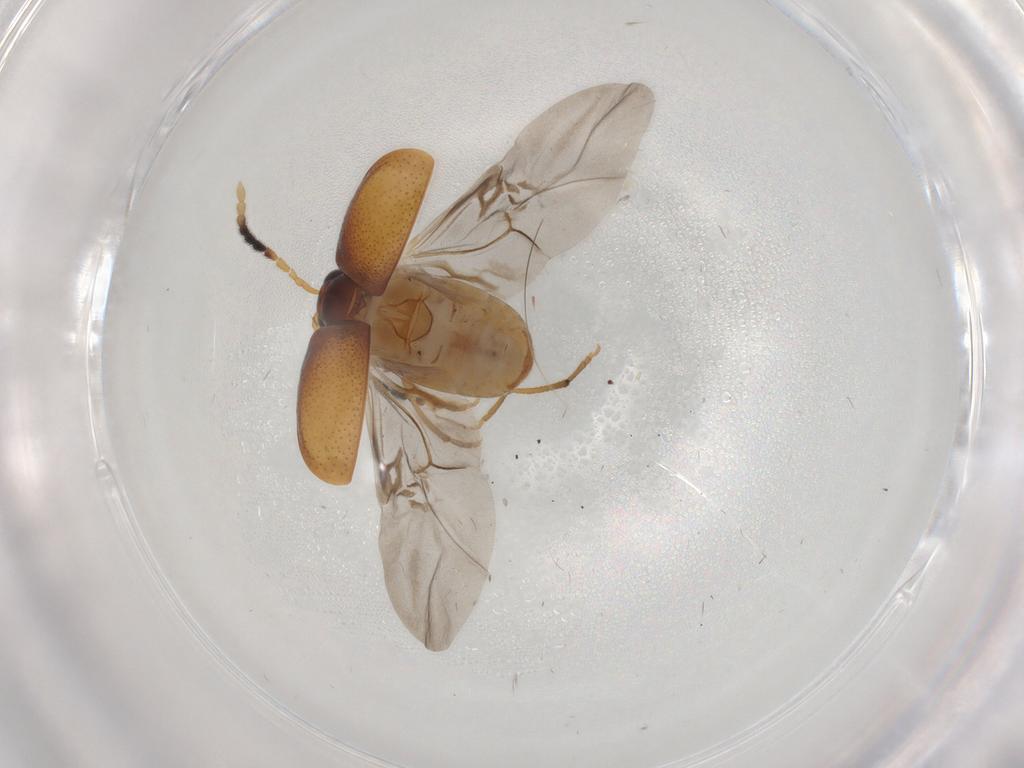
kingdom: Animalia
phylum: Arthropoda
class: Insecta
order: Coleoptera
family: Chrysomelidae
